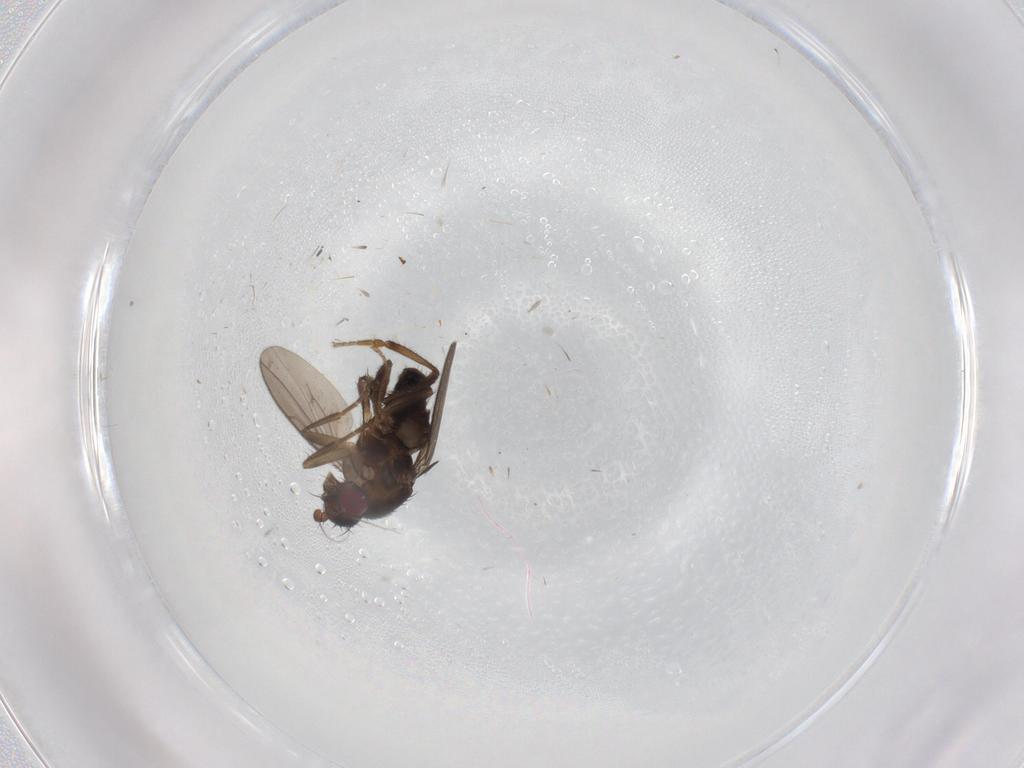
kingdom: Animalia
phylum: Arthropoda
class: Insecta
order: Diptera
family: Sphaeroceridae
